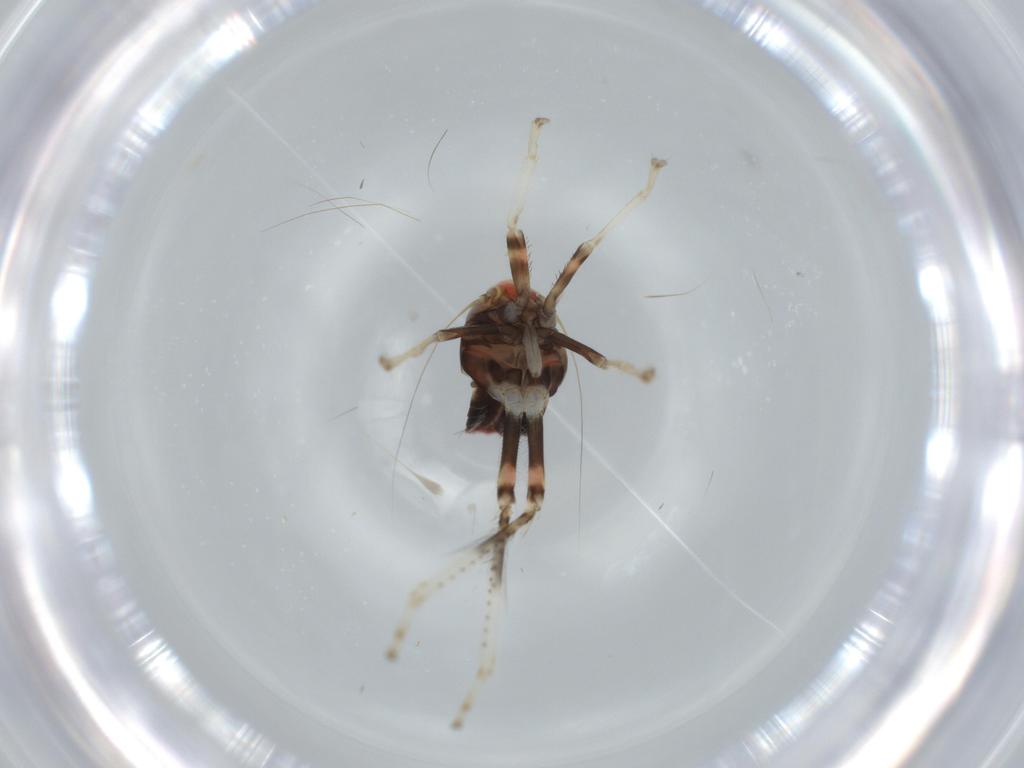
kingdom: Animalia
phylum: Arthropoda
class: Insecta
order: Hemiptera
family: Cicadellidae
